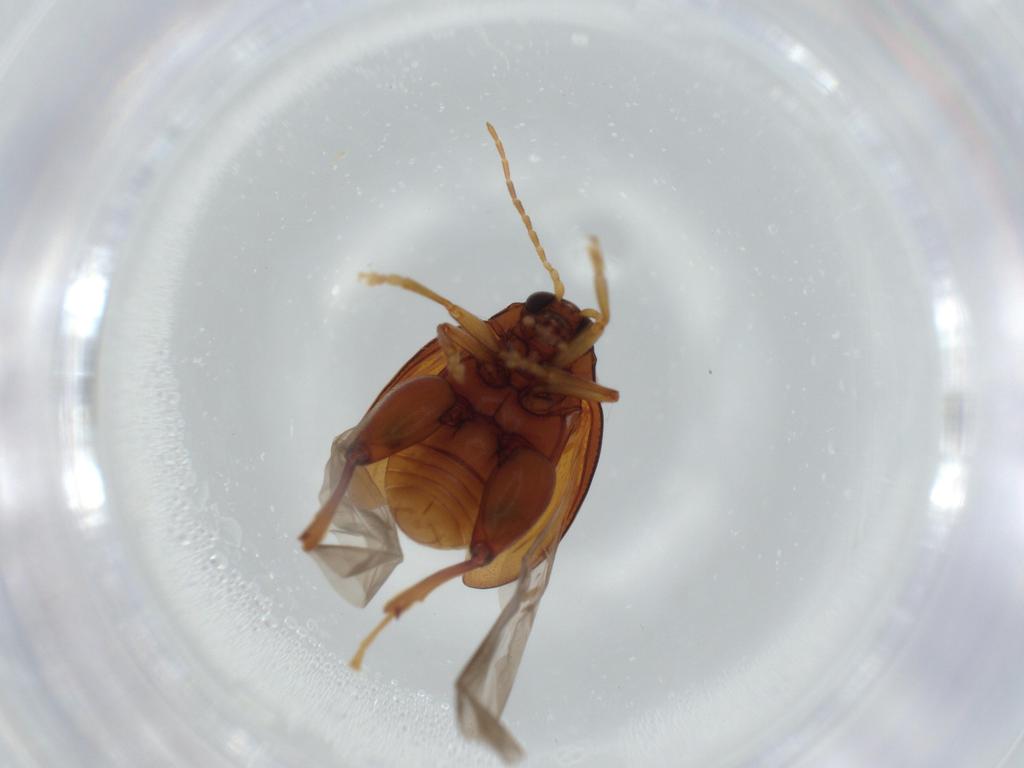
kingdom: Animalia
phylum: Arthropoda
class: Insecta
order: Coleoptera
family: Chrysomelidae
